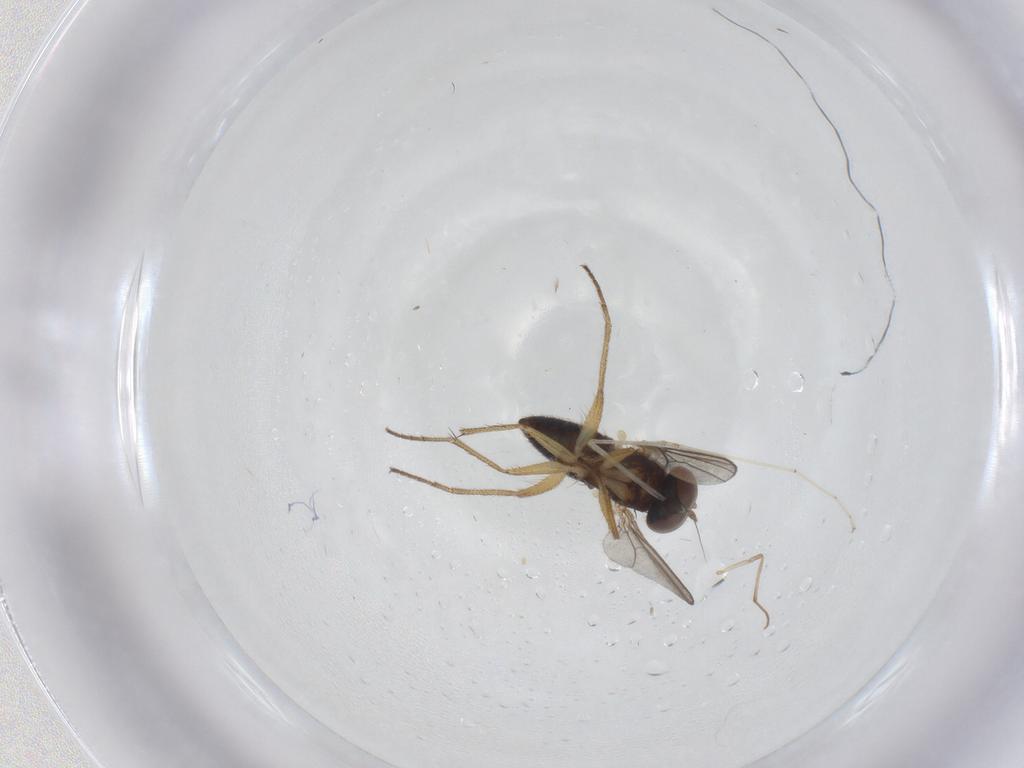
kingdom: Animalia
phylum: Arthropoda
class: Insecta
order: Diptera
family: Chironomidae
